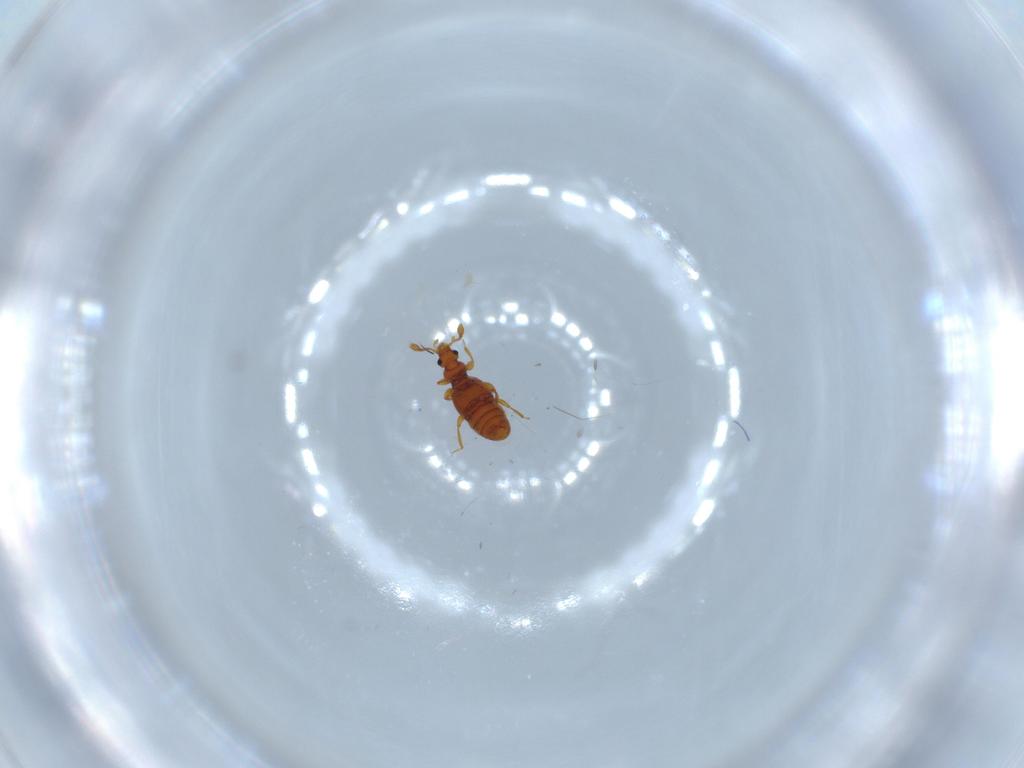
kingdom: Animalia
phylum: Arthropoda
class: Insecta
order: Coleoptera
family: Staphylinidae
